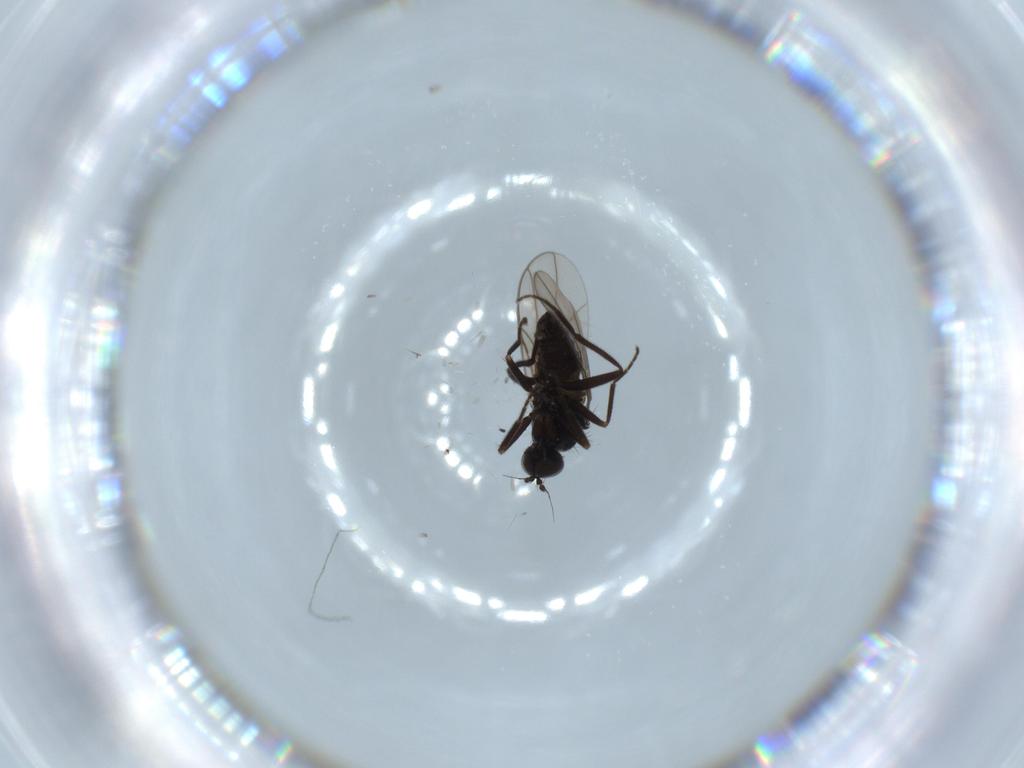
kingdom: Animalia
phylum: Arthropoda
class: Insecta
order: Diptera
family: Hybotidae
